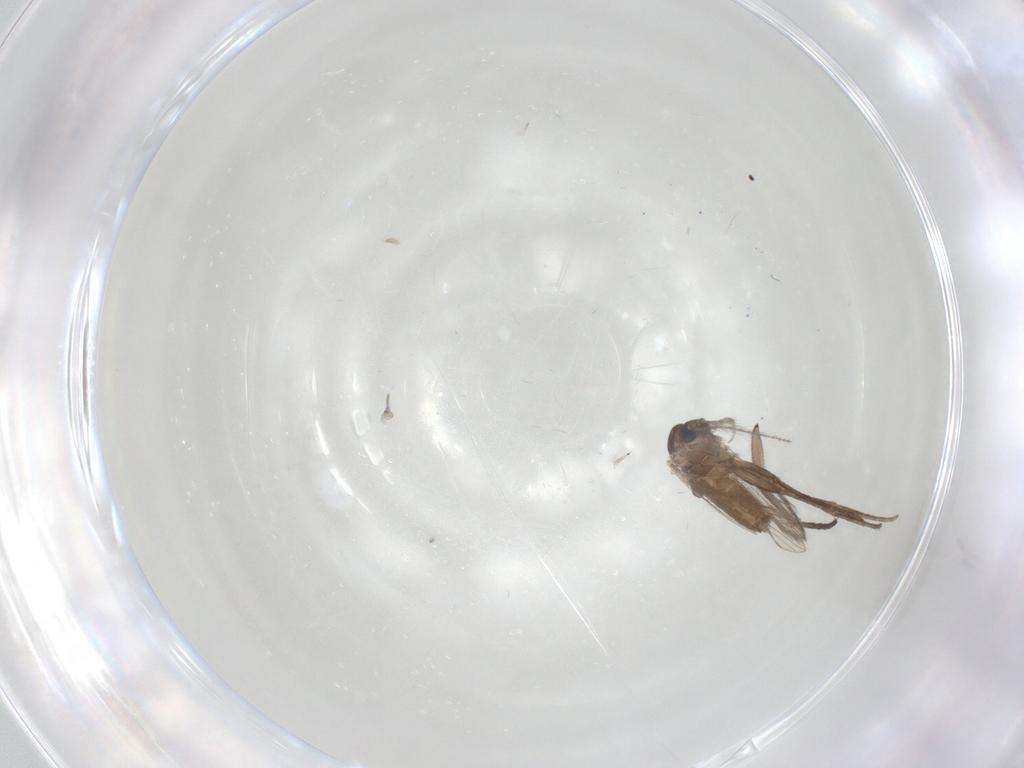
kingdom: Animalia
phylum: Arthropoda
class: Insecta
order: Diptera
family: Psychodidae
